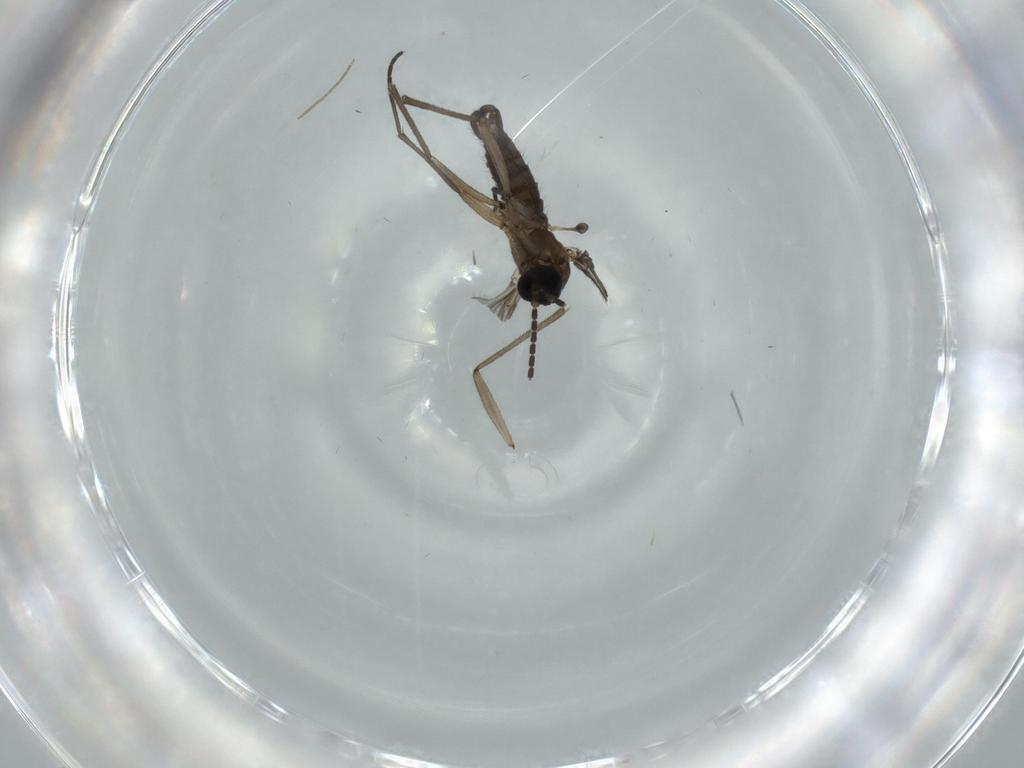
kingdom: Animalia
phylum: Arthropoda
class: Insecta
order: Diptera
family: Sciaridae
